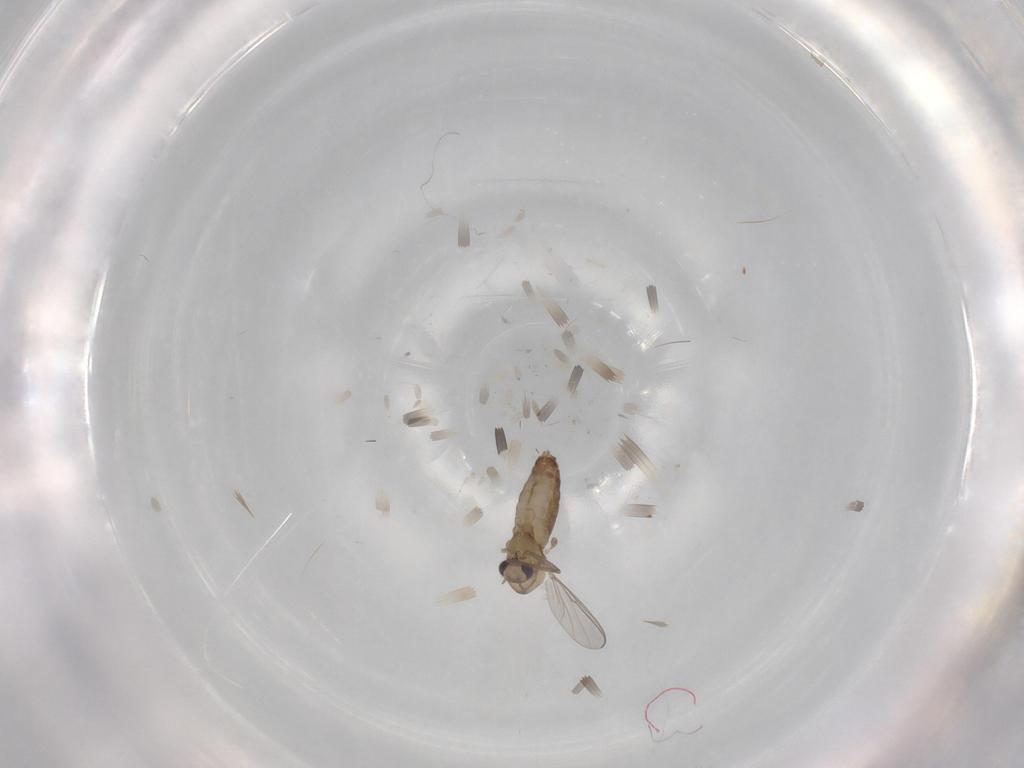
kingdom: Animalia
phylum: Arthropoda
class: Insecta
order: Diptera
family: Chironomidae
